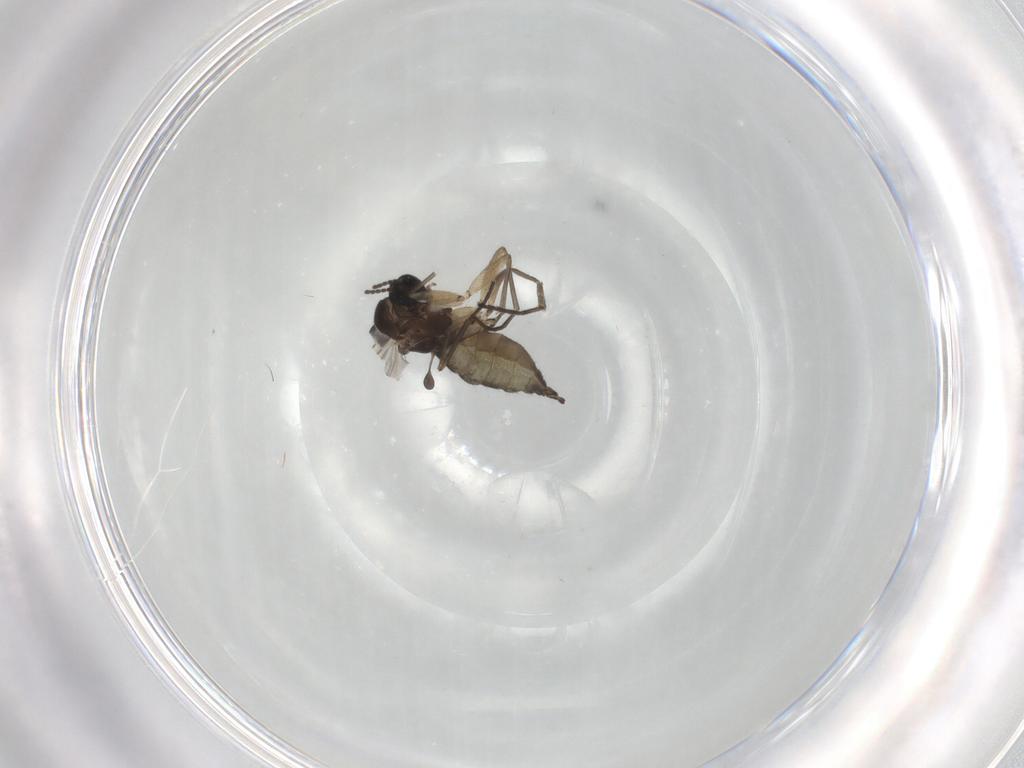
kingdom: Animalia
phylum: Arthropoda
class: Insecta
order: Diptera
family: Sciaridae
